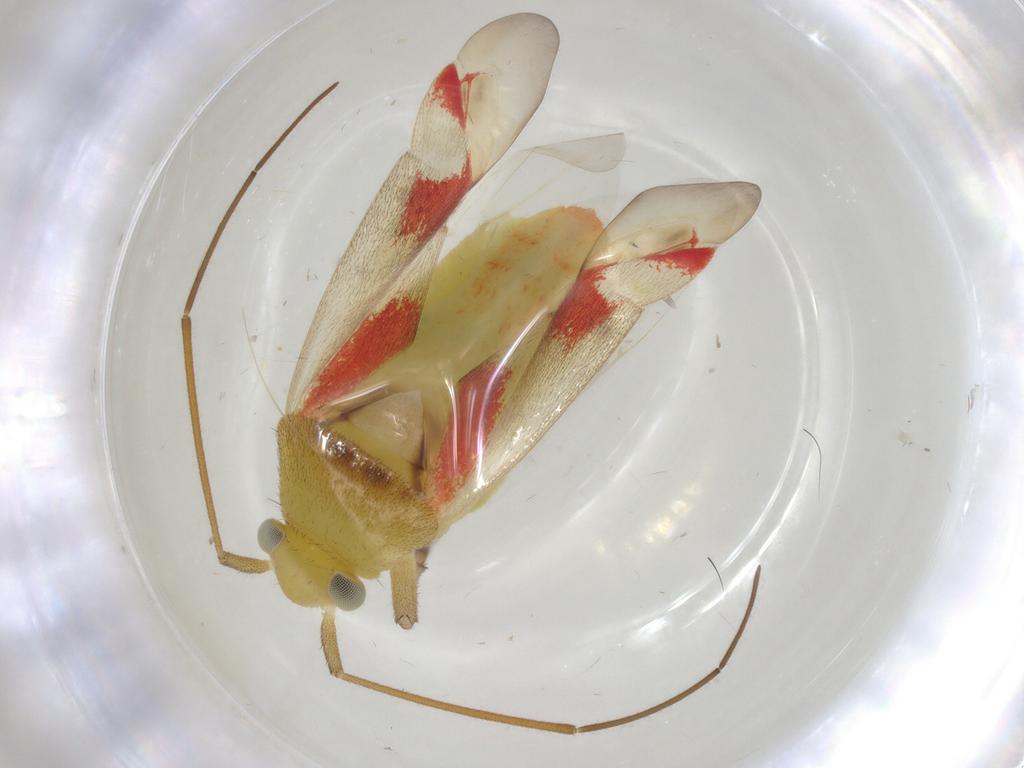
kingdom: Animalia
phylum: Arthropoda
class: Insecta
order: Hemiptera
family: Miridae
